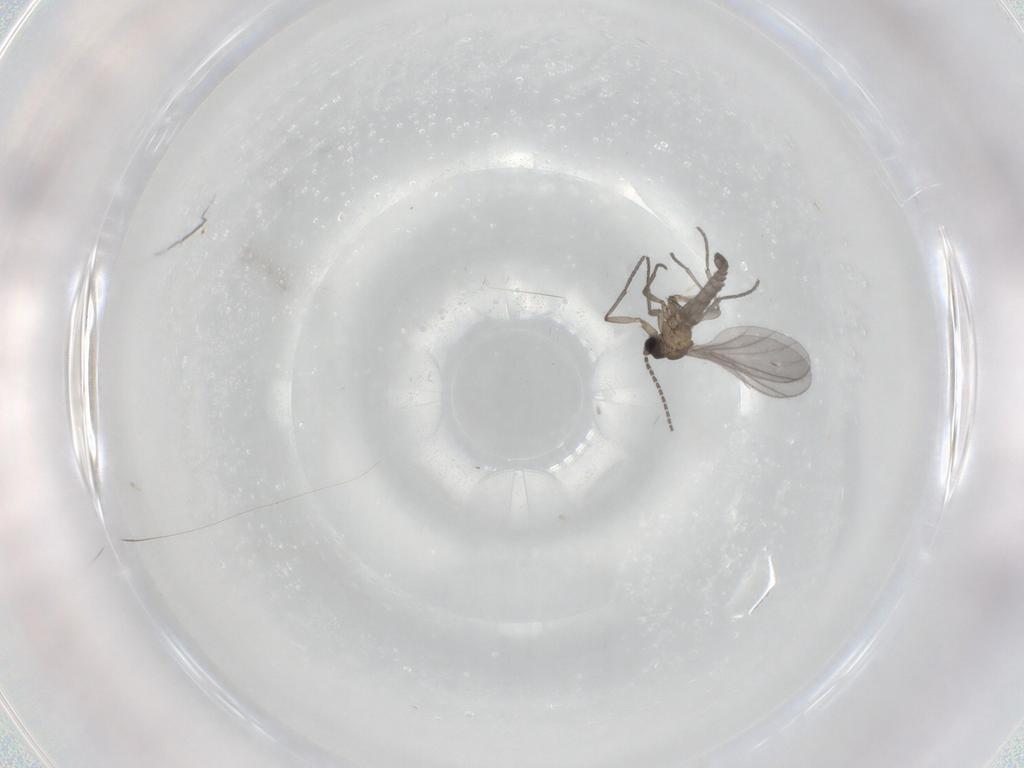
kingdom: Animalia
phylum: Arthropoda
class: Insecta
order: Diptera
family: Sciaridae
